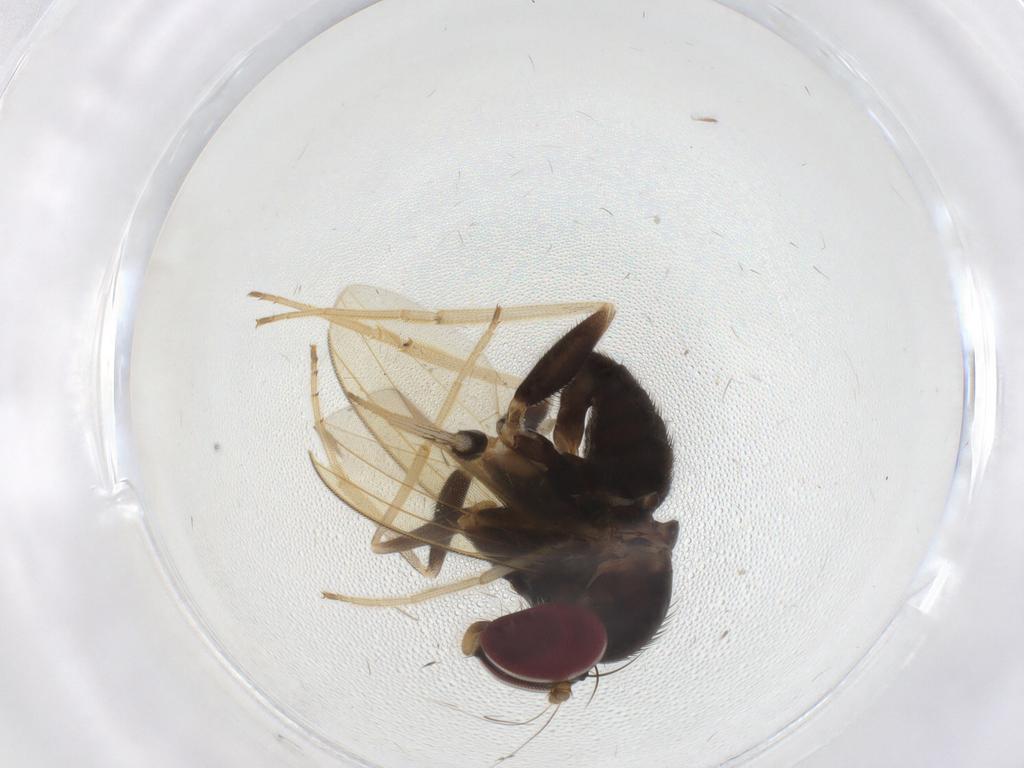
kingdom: Animalia
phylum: Arthropoda
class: Insecta
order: Diptera
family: Dolichopodidae
